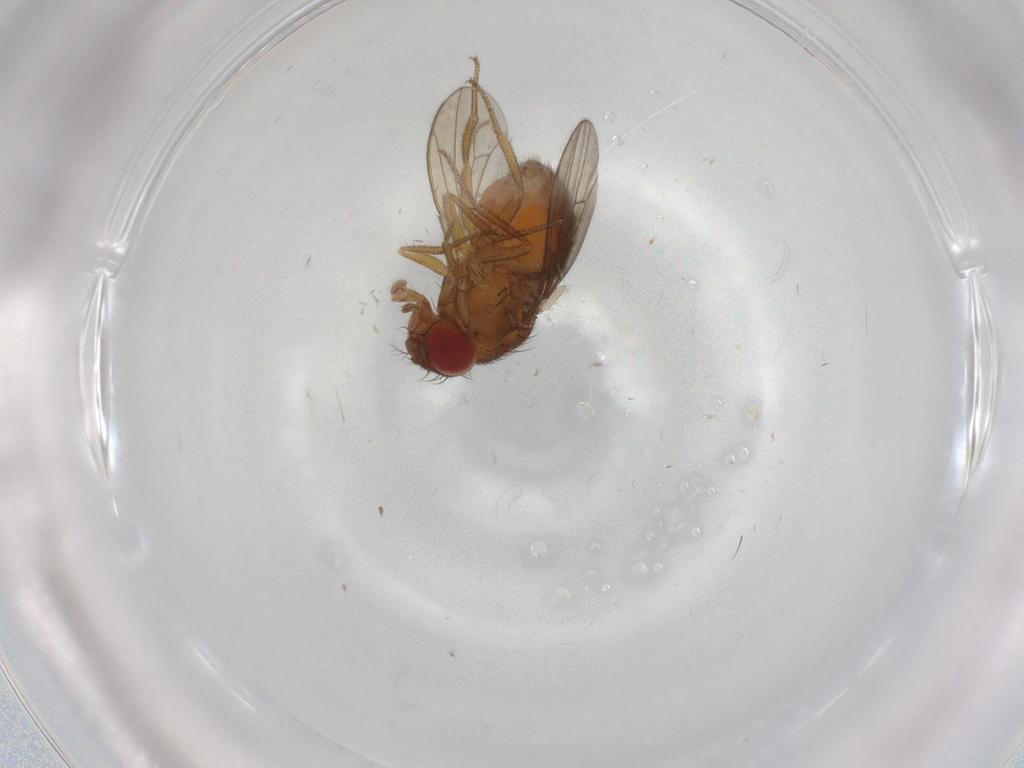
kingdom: Animalia
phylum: Arthropoda
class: Insecta
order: Diptera
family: Drosophilidae
